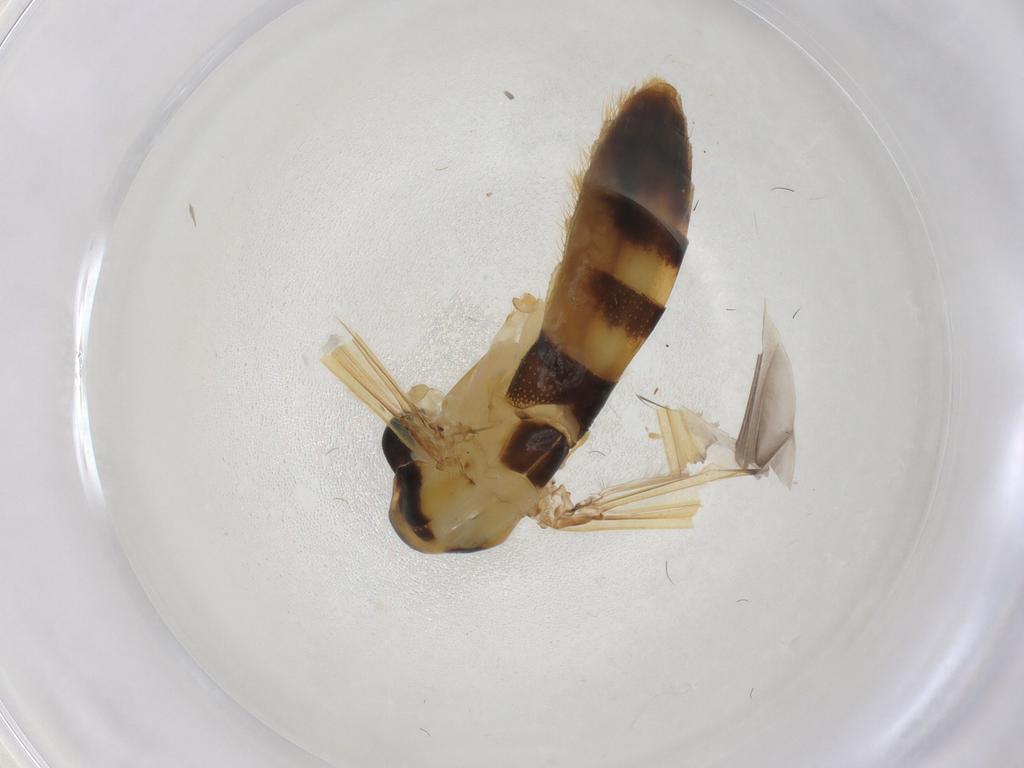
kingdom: Animalia
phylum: Arthropoda
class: Insecta
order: Diptera
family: Chironomidae
